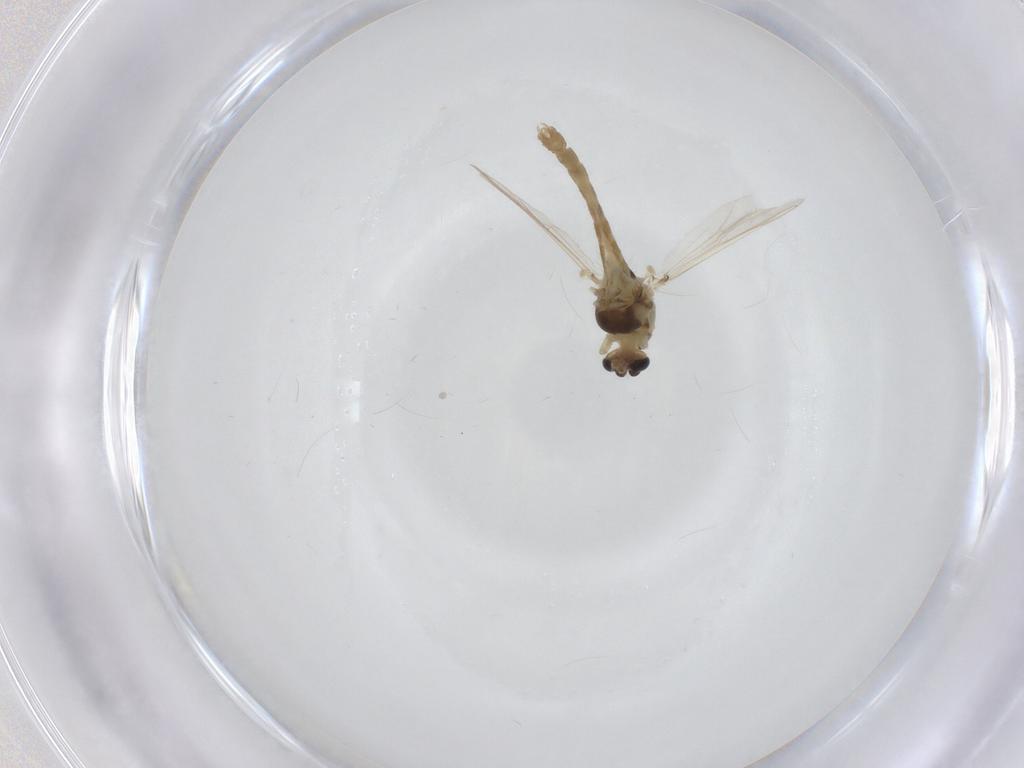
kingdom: Animalia
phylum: Arthropoda
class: Insecta
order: Diptera
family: Chironomidae
